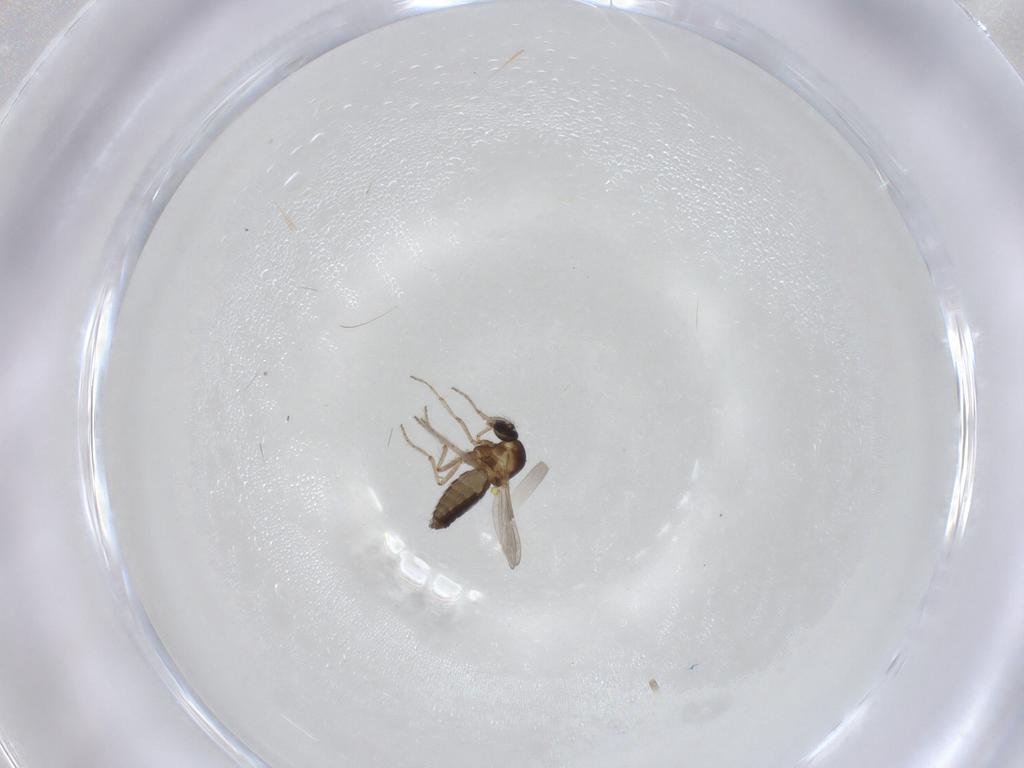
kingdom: Animalia
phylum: Arthropoda
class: Insecta
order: Diptera
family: Ceratopogonidae
